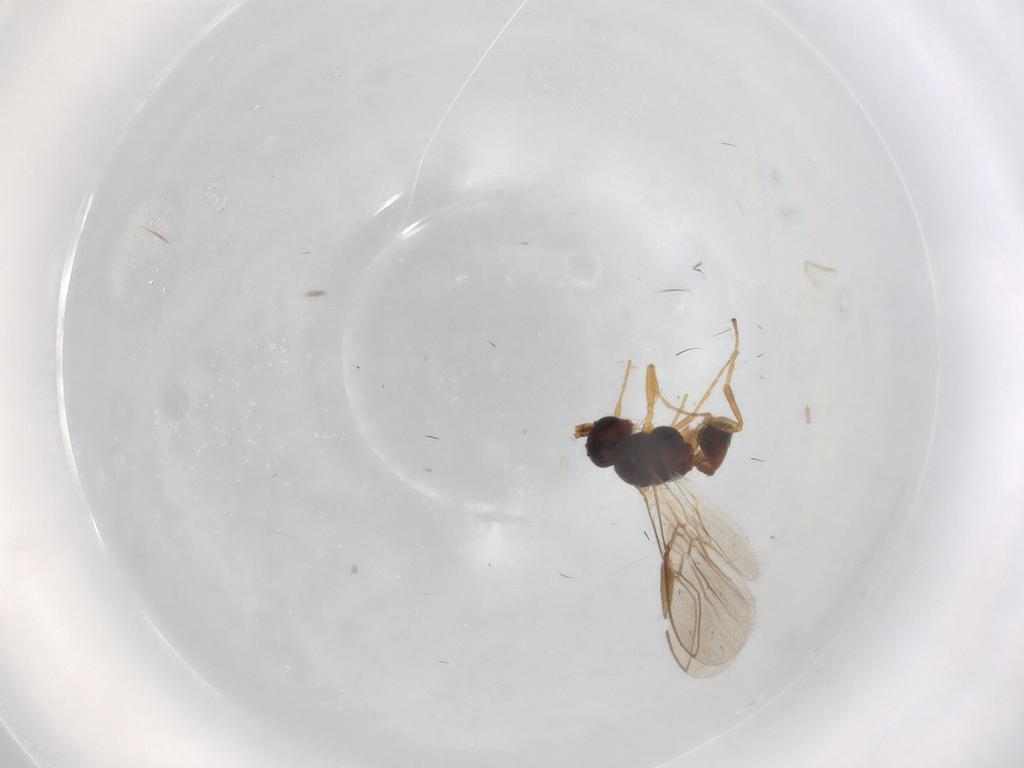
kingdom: Animalia
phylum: Arthropoda
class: Insecta
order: Hymenoptera
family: Braconidae
